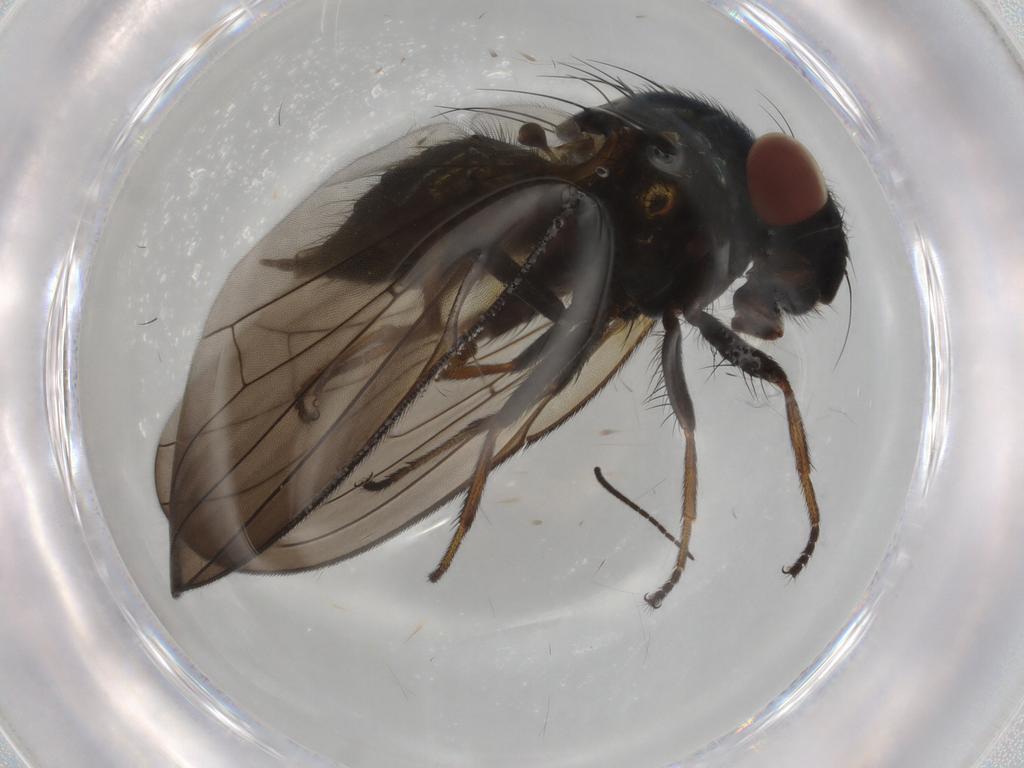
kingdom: Animalia
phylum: Arthropoda
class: Insecta
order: Diptera
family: Lonchaeidae
